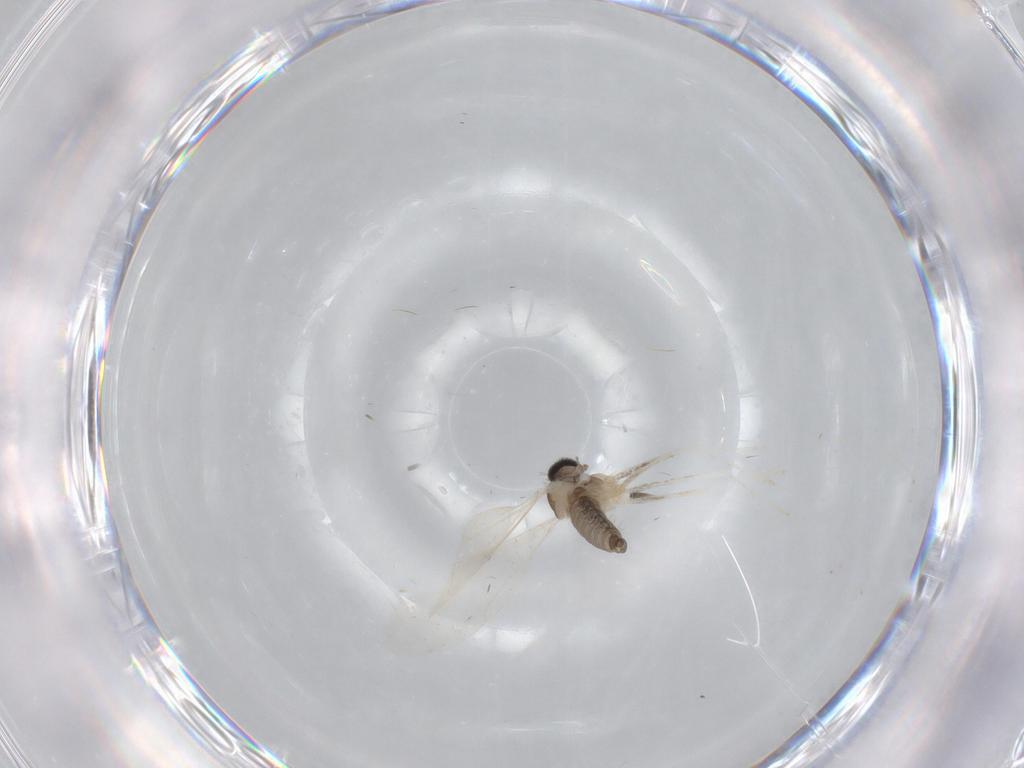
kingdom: Animalia
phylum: Arthropoda
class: Insecta
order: Diptera
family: Cecidomyiidae
